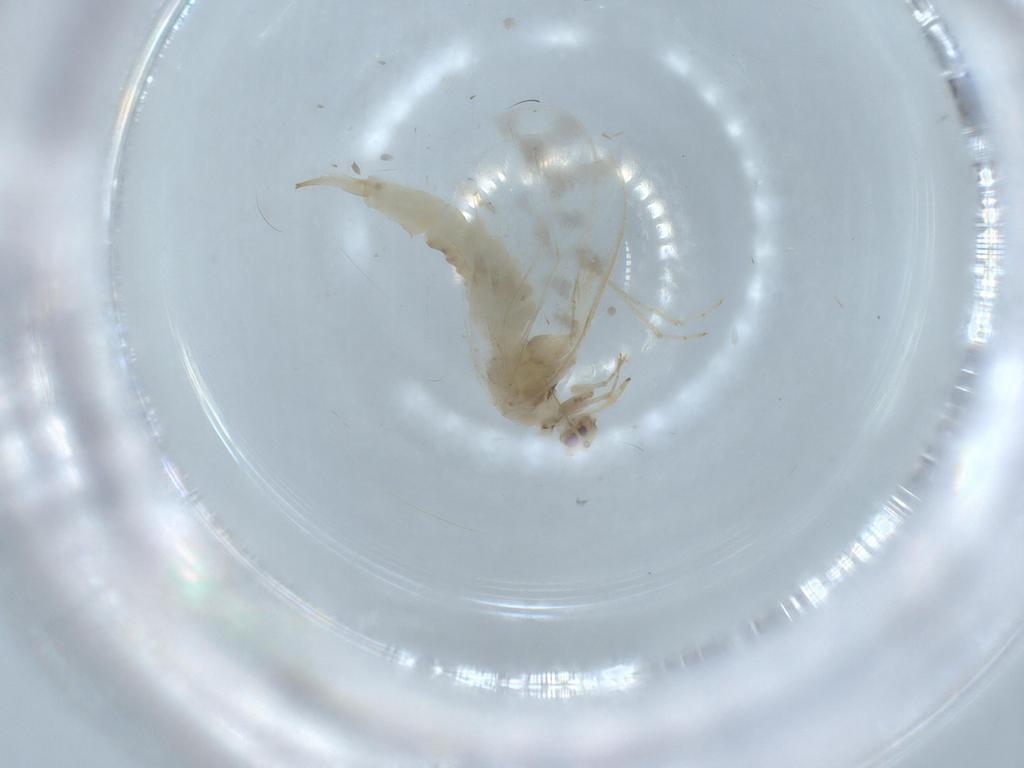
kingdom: Animalia
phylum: Arthropoda
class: Insecta
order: Hemiptera
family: Aleyrodidae
